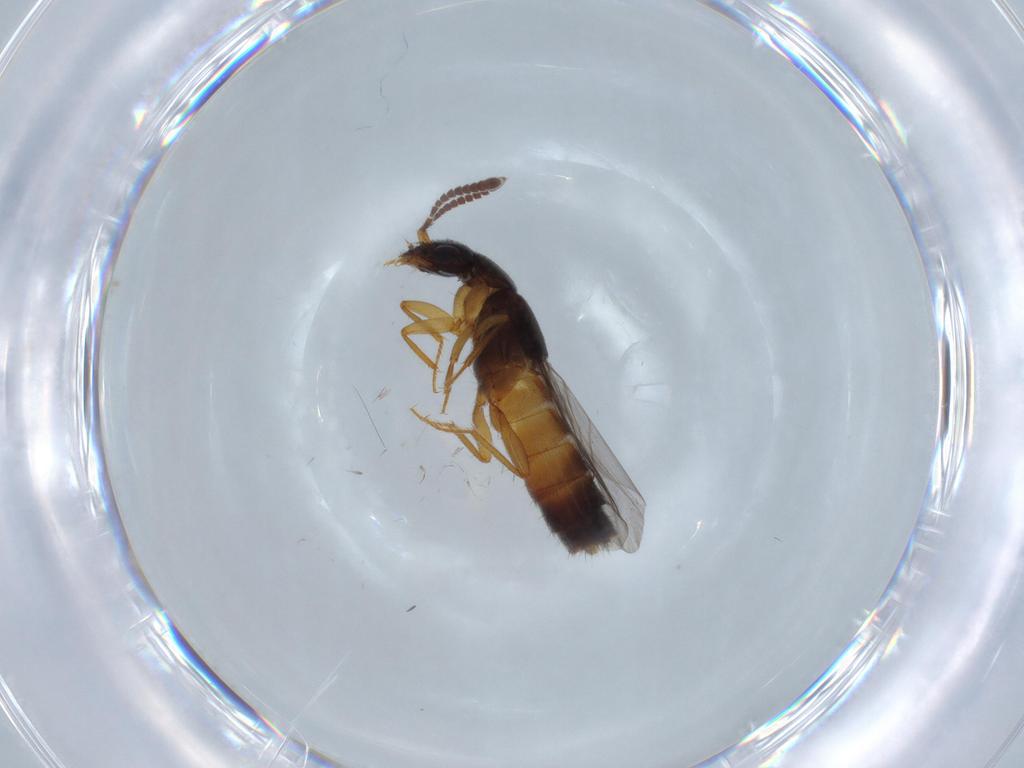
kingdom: Animalia
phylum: Arthropoda
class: Insecta
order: Coleoptera
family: Staphylinidae
